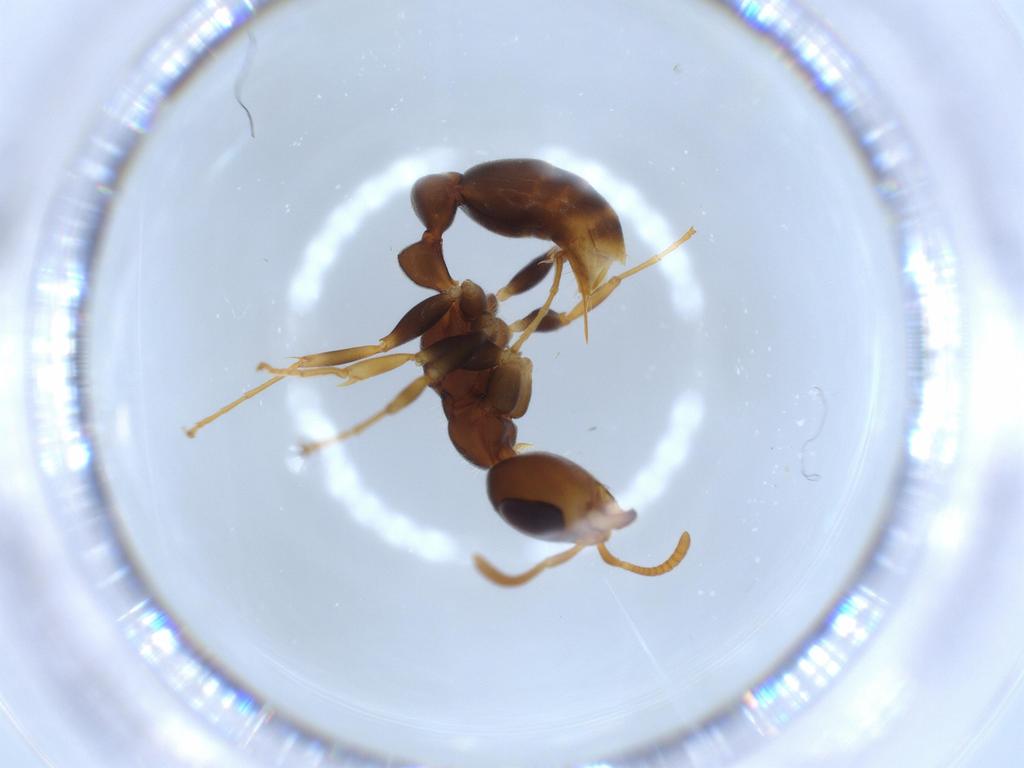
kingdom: Animalia
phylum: Arthropoda
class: Insecta
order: Hymenoptera
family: Formicidae
